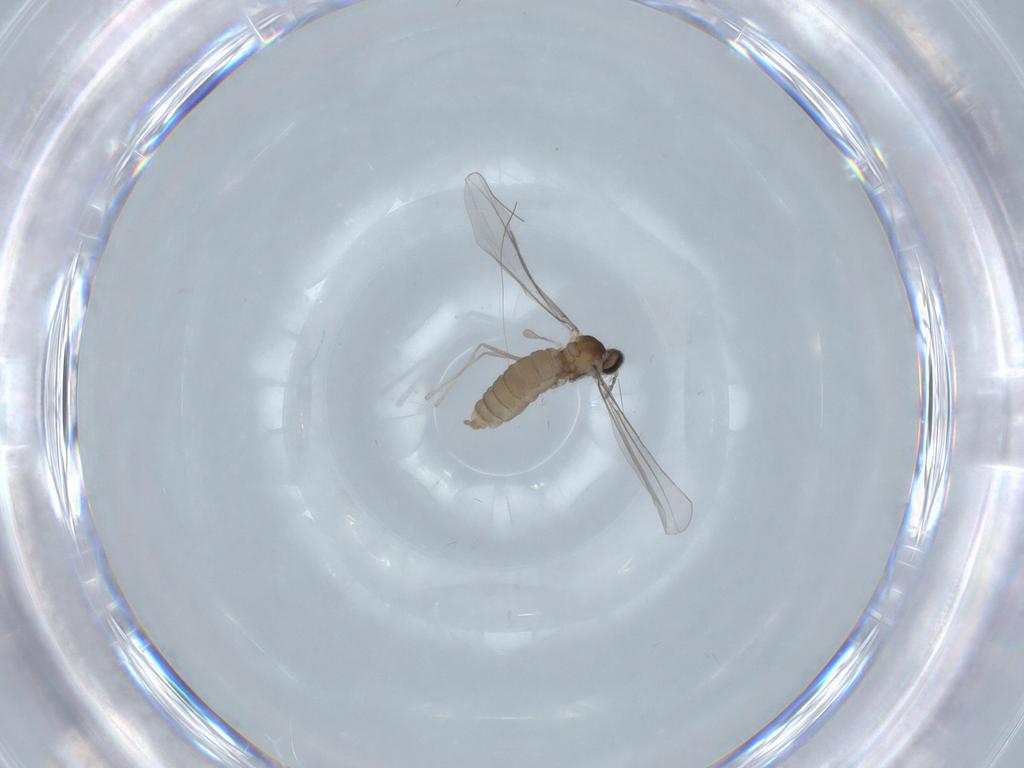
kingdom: Animalia
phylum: Arthropoda
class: Insecta
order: Diptera
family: Cecidomyiidae
